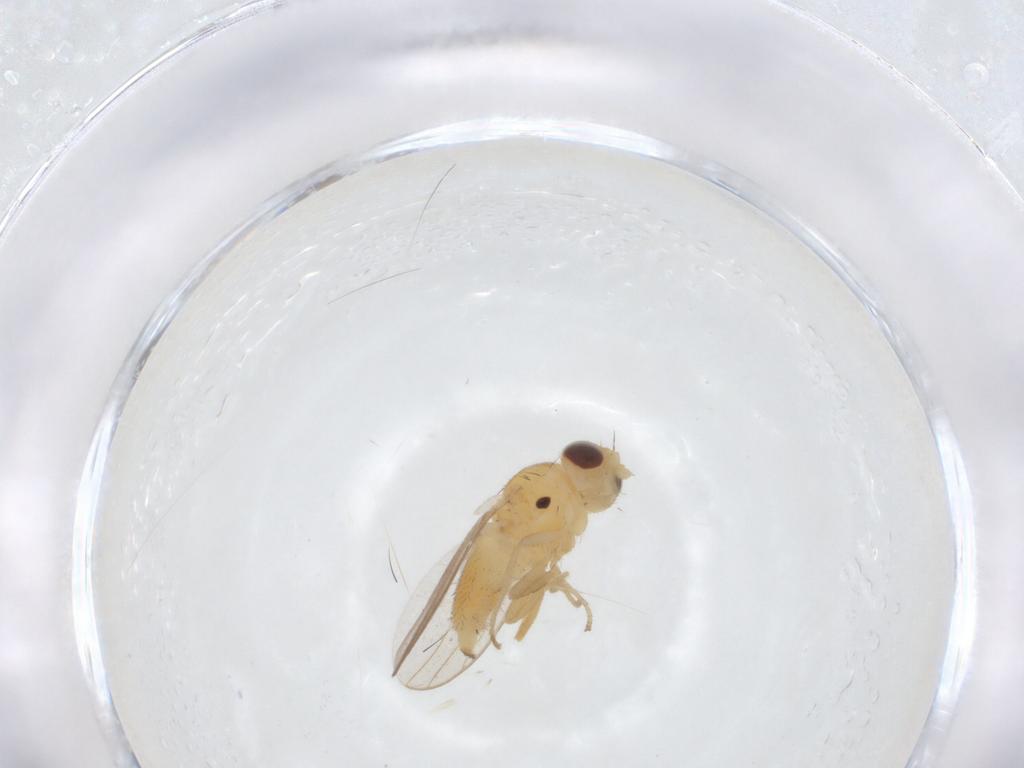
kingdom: Animalia
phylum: Arthropoda
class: Insecta
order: Diptera
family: Chloropidae
